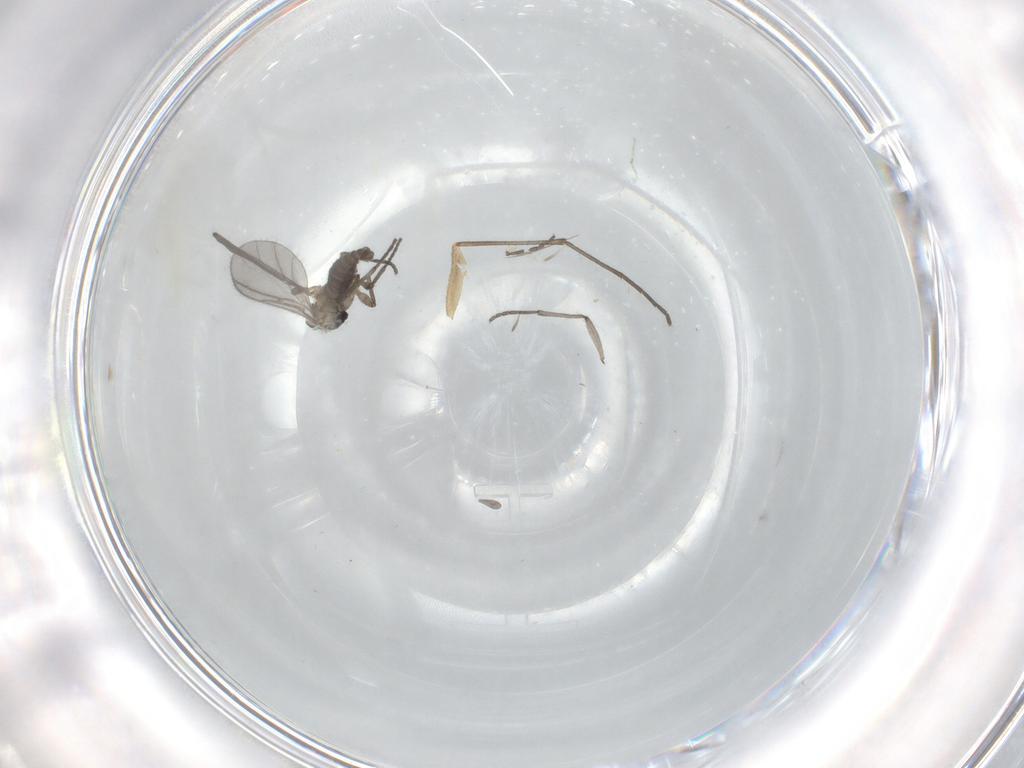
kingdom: Animalia
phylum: Arthropoda
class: Insecta
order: Diptera
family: Sciaridae
